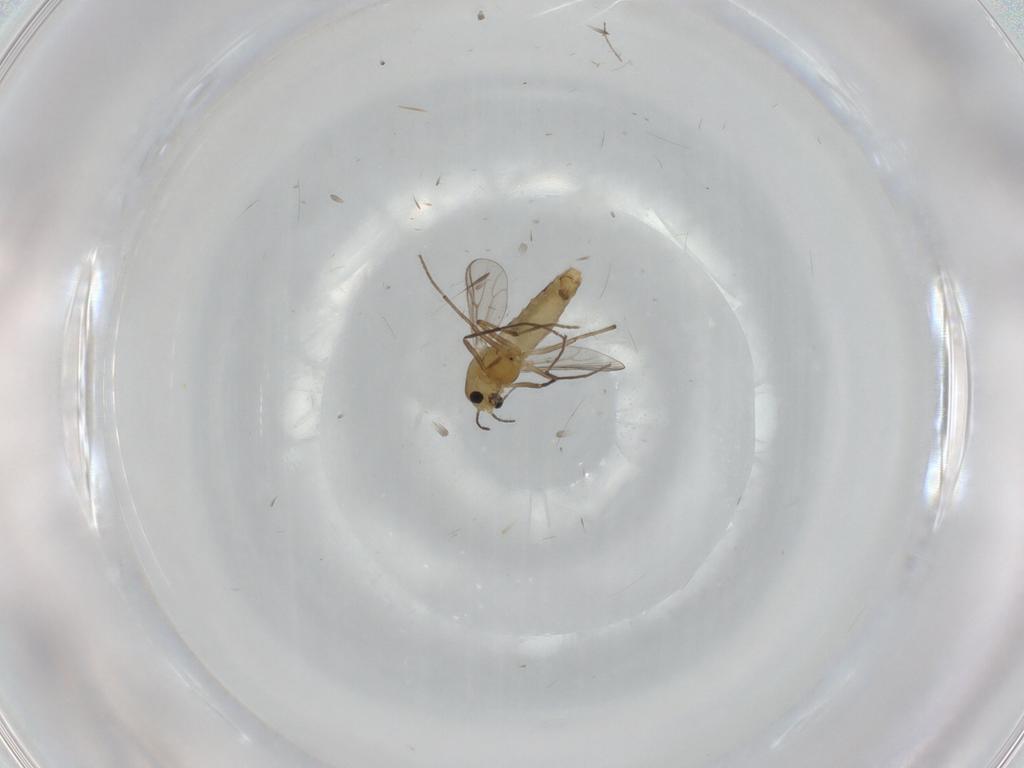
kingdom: Animalia
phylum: Arthropoda
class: Insecta
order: Diptera
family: Chironomidae
